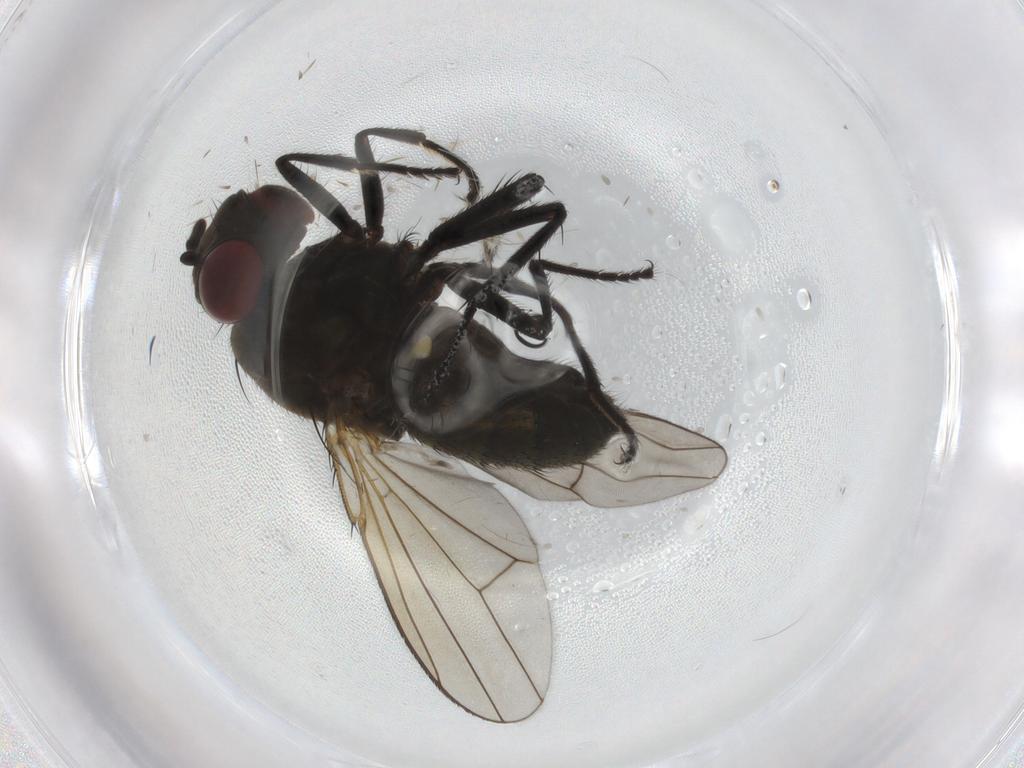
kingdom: Animalia
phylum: Arthropoda
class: Insecta
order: Diptera
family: Ephydridae
